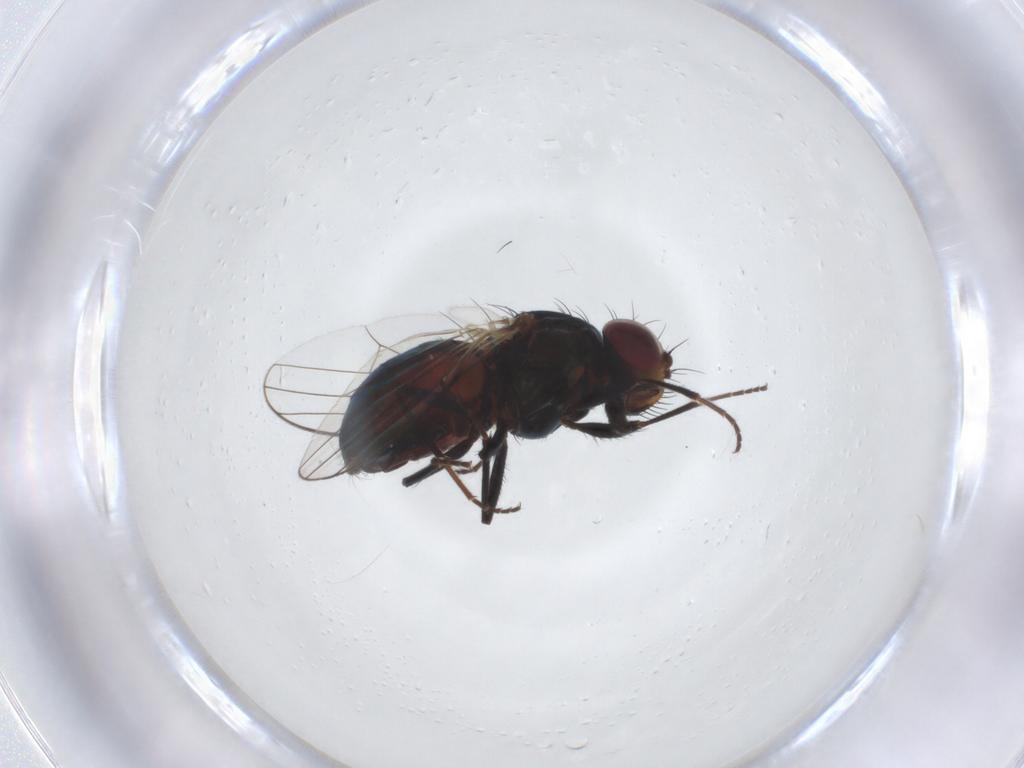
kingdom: Animalia
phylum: Arthropoda
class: Insecta
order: Diptera
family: Carnidae
